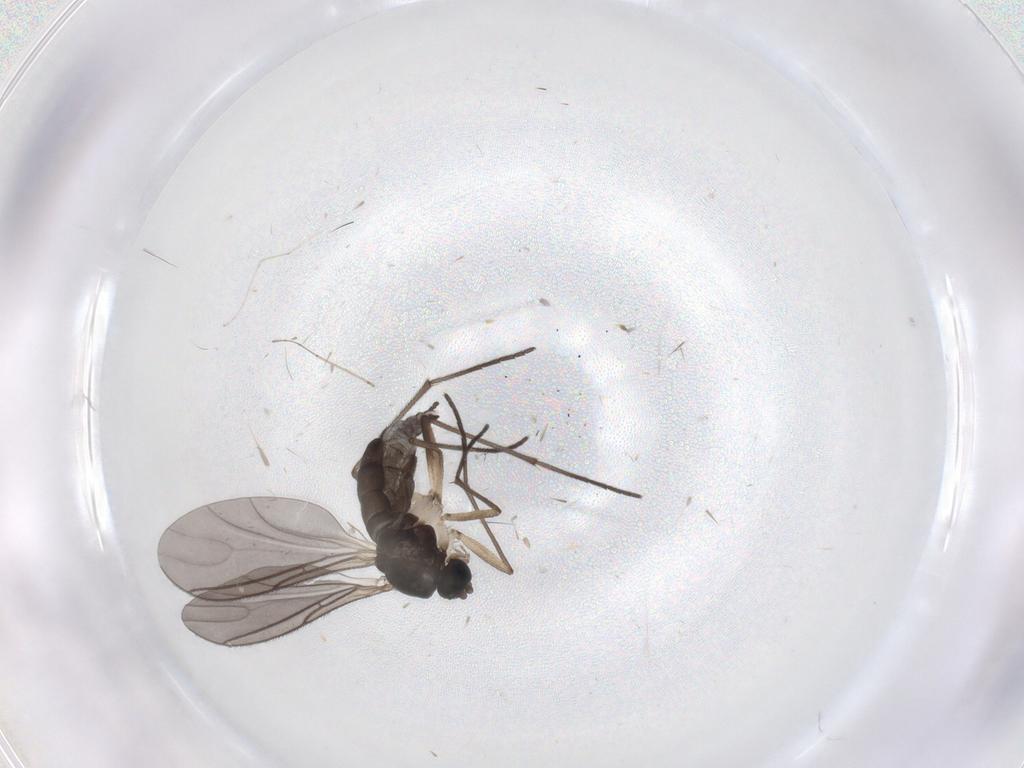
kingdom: Animalia
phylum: Arthropoda
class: Insecta
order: Diptera
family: Sciaridae
